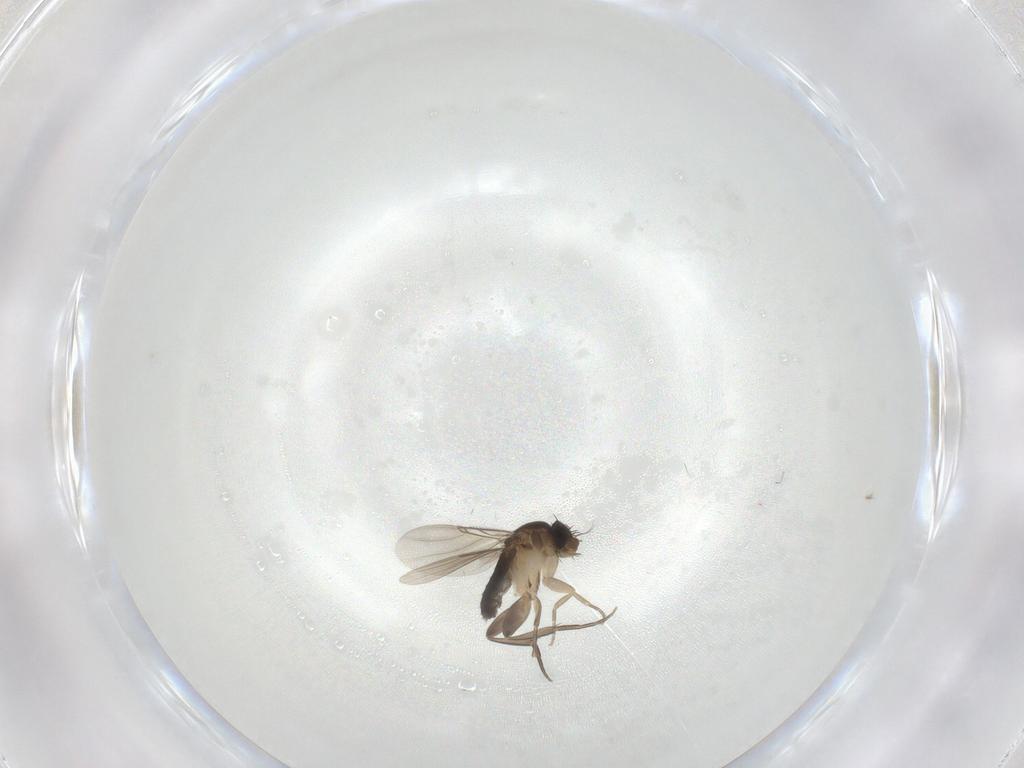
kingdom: Animalia
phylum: Arthropoda
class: Insecta
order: Diptera
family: Phoridae
